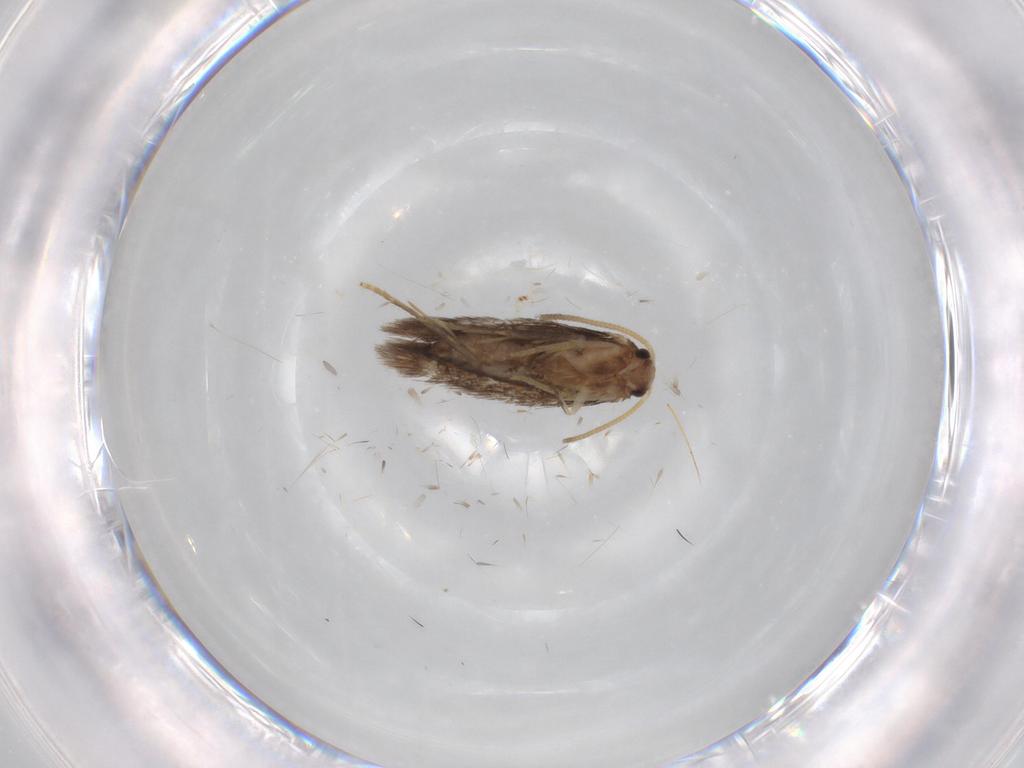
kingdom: Animalia
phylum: Arthropoda
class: Insecta
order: Lepidoptera
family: Nepticulidae
